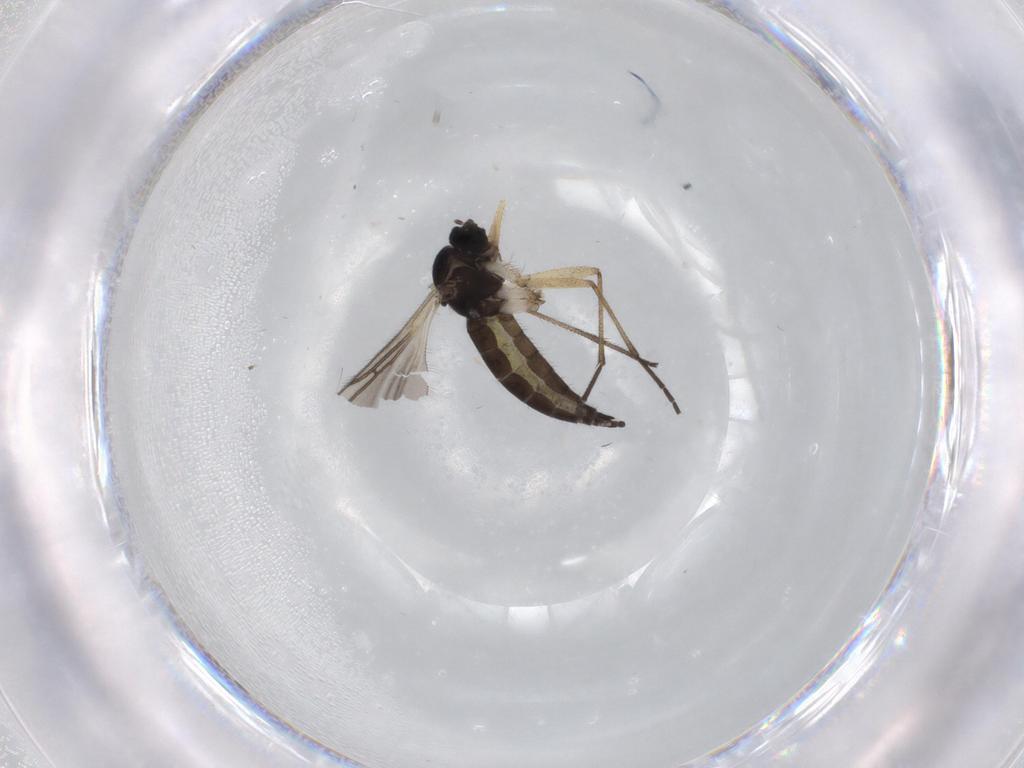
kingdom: Animalia
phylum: Arthropoda
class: Insecta
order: Diptera
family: Sciaridae
